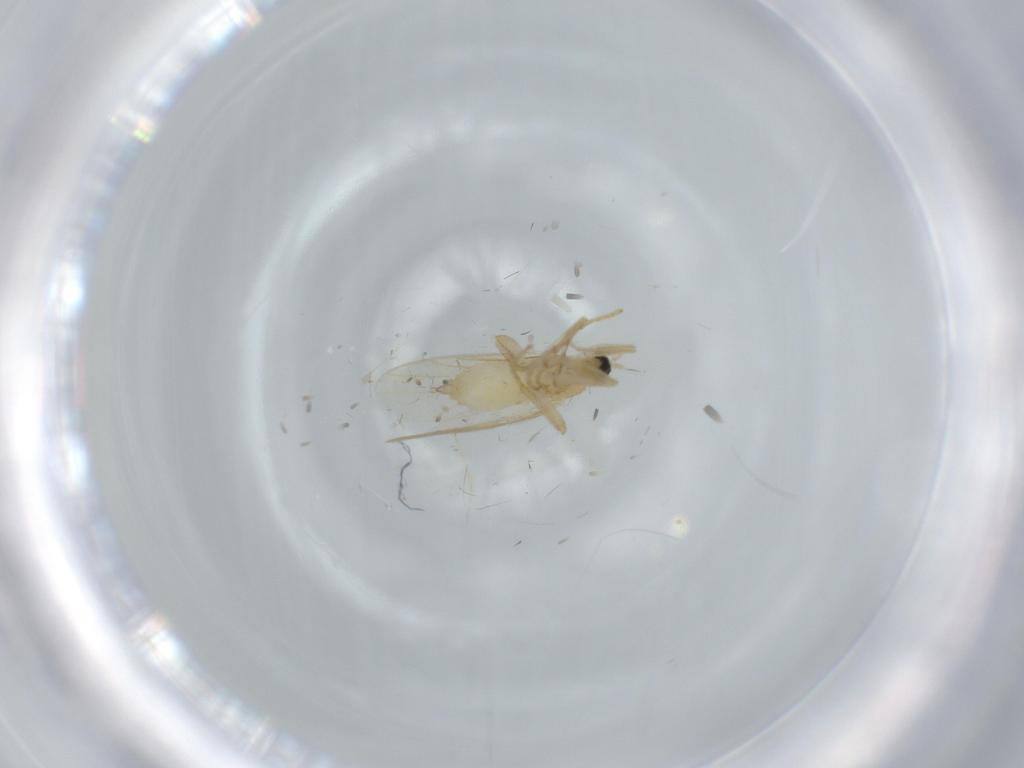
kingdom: Animalia
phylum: Arthropoda
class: Insecta
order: Diptera
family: Hybotidae
